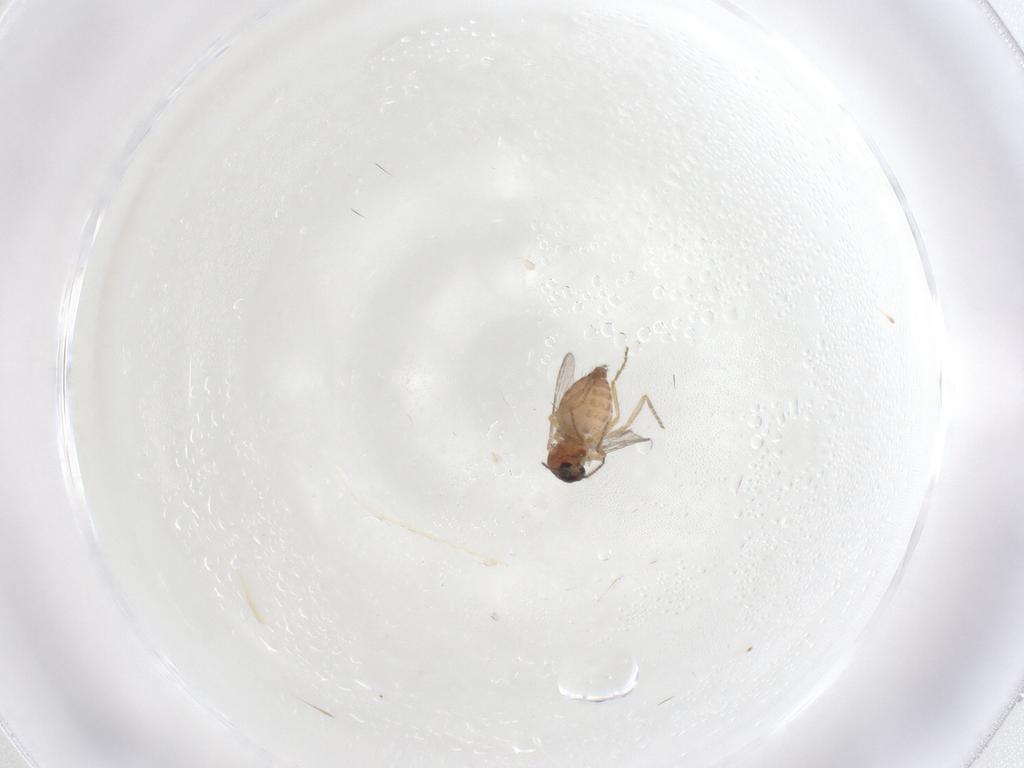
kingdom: Animalia
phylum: Arthropoda
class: Insecta
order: Diptera
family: Ceratopogonidae
